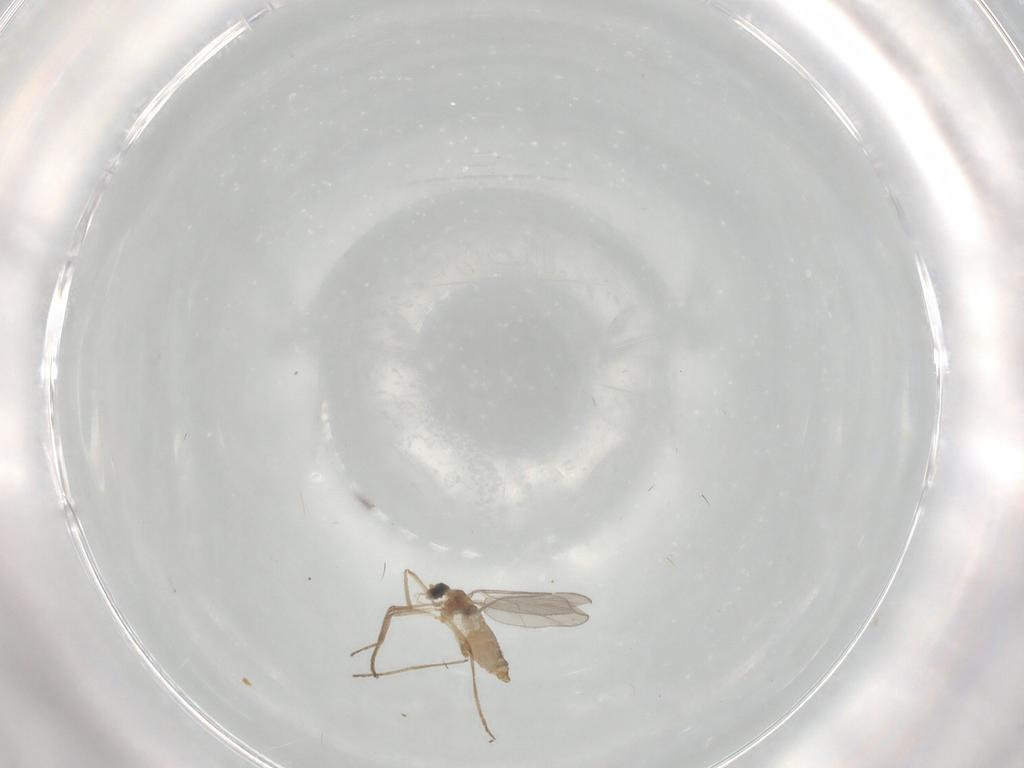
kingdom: Animalia
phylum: Arthropoda
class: Insecta
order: Diptera
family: Cecidomyiidae
